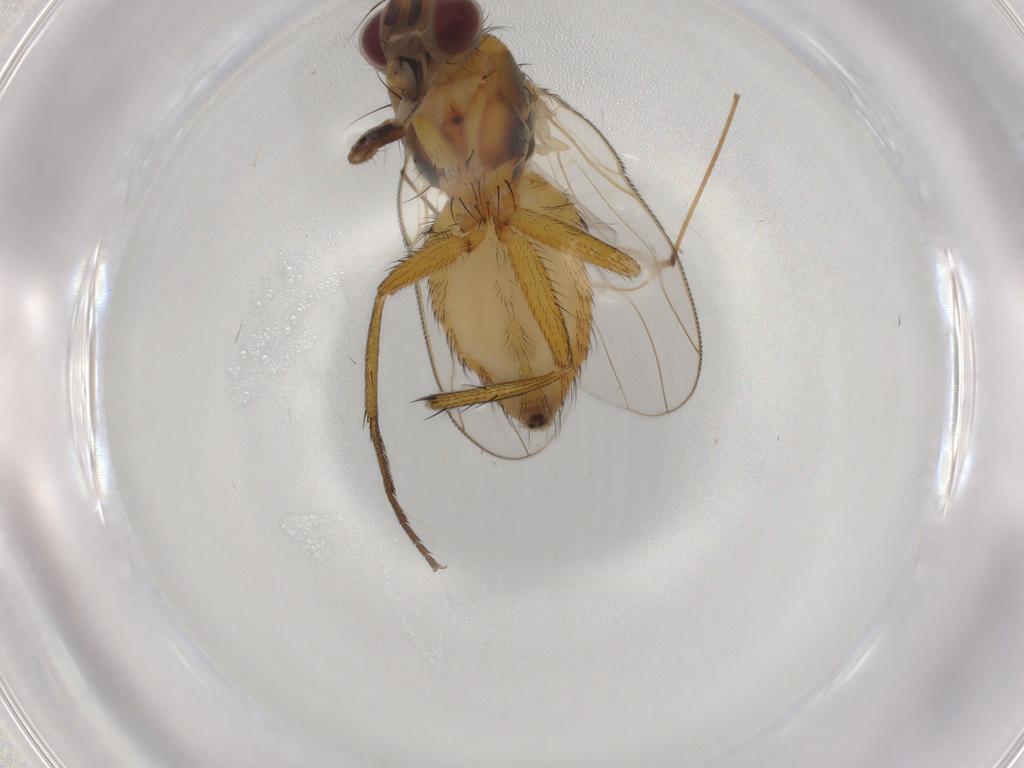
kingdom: Animalia
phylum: Arthropoda
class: Insecta
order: Diptera
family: Muscidae
